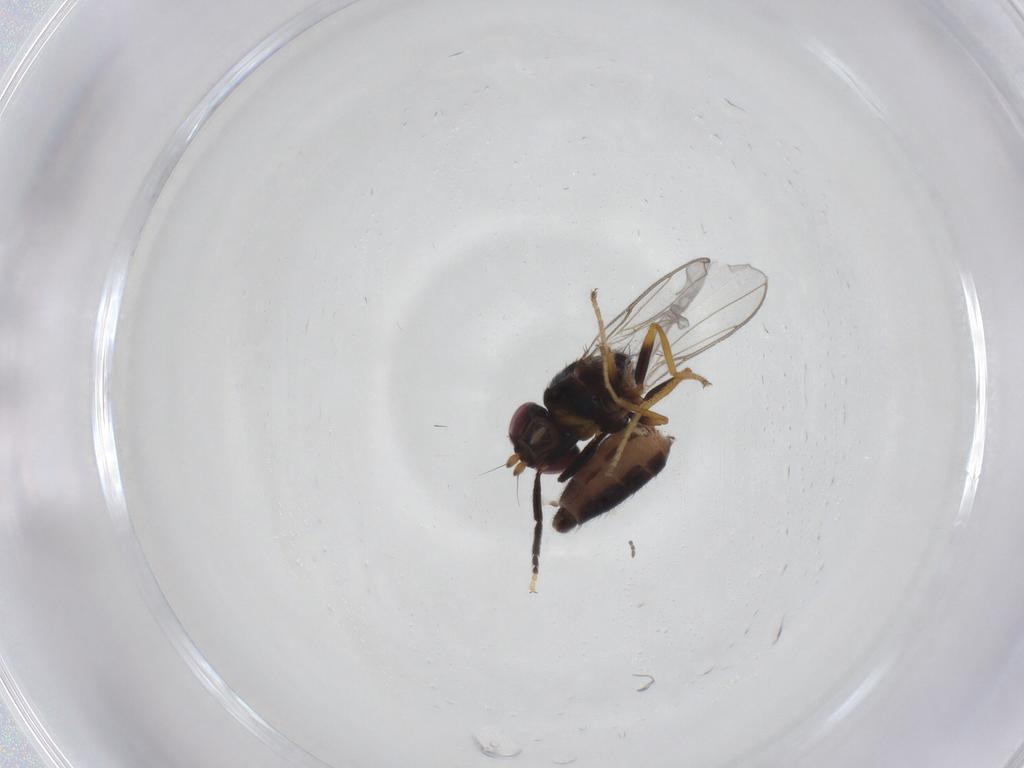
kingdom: Animalia
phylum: Arthropoda
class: Insecta
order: Diptera
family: Chloropidae
